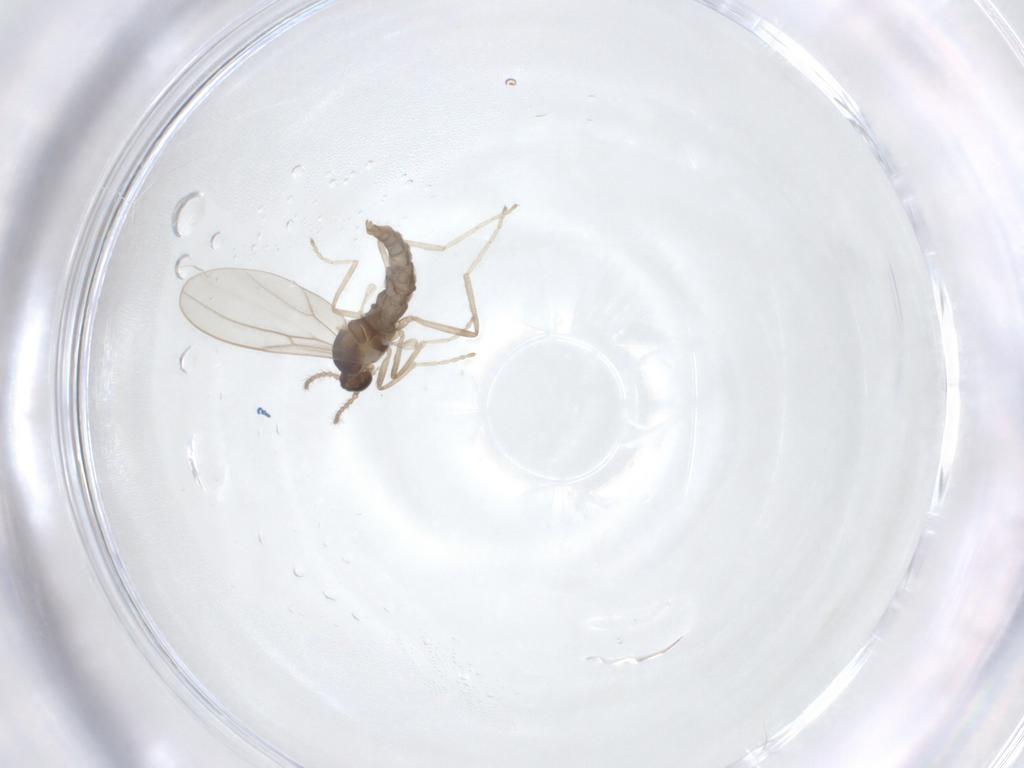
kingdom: Animalia
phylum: Arthropoda
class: Insecta
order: Diptera
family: Cecidomyiidae
